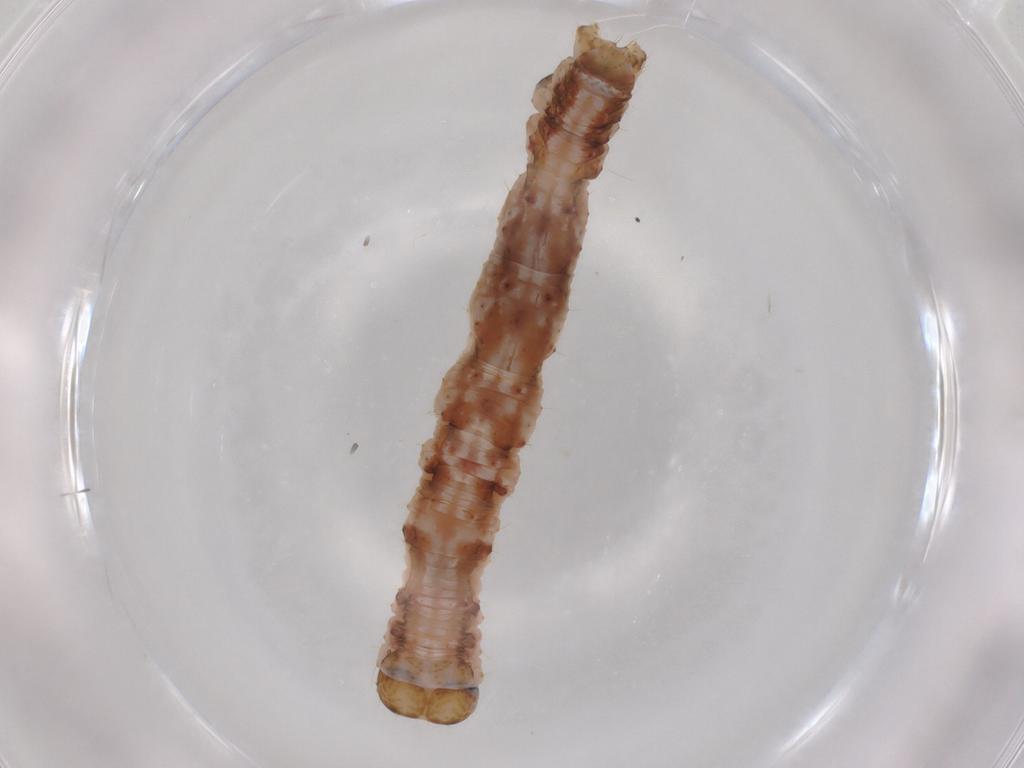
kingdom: Animalia
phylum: Arthropoda
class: Insecta
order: Lepidoptera
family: Geometridae
